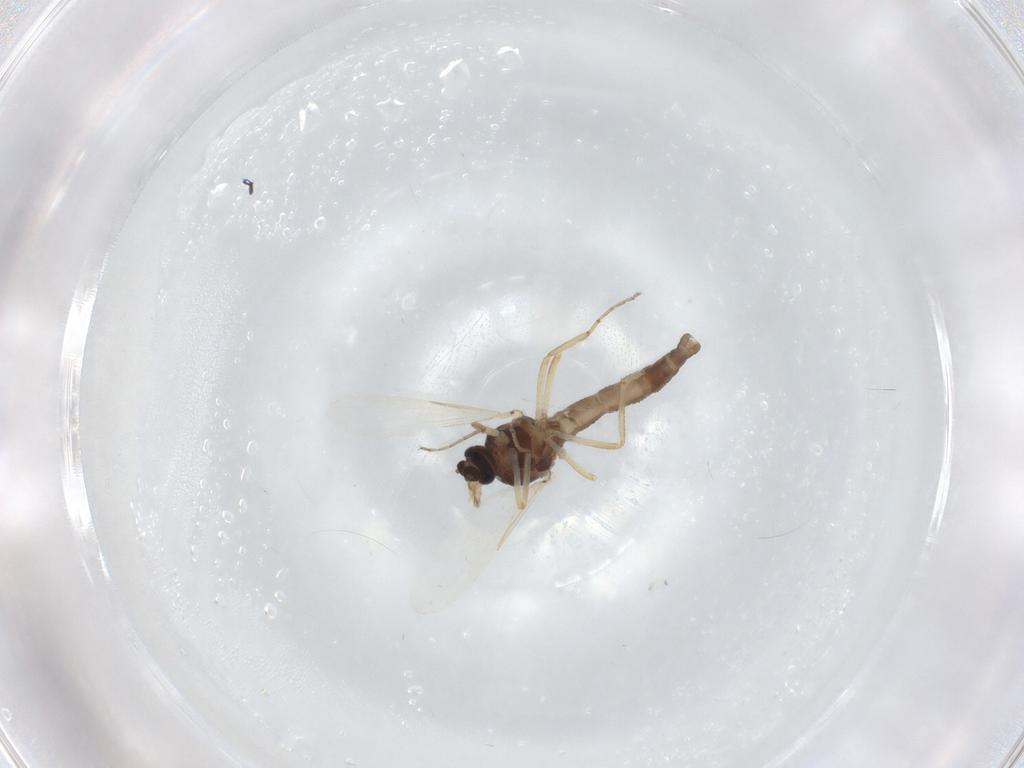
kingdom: Animalia
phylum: Arthropoda
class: Insecta
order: Diptera
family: Ceratopogonidae
